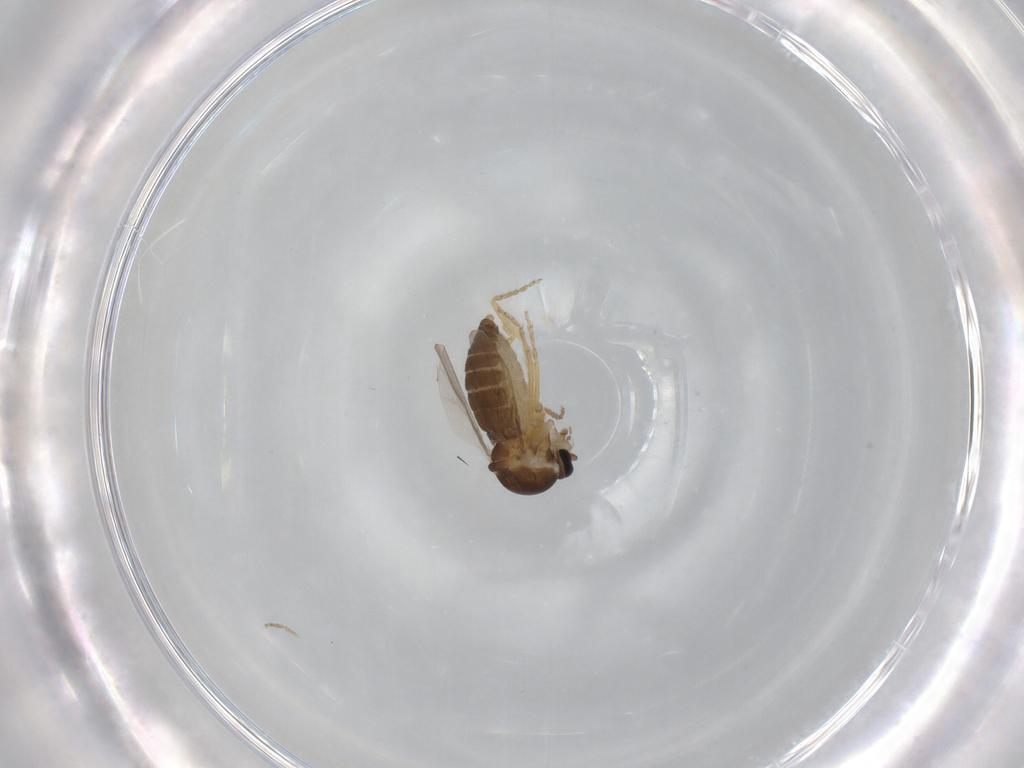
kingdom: Animalia
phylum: Arthropoda
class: Insecta
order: Diptera
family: Ceratopogonidae
